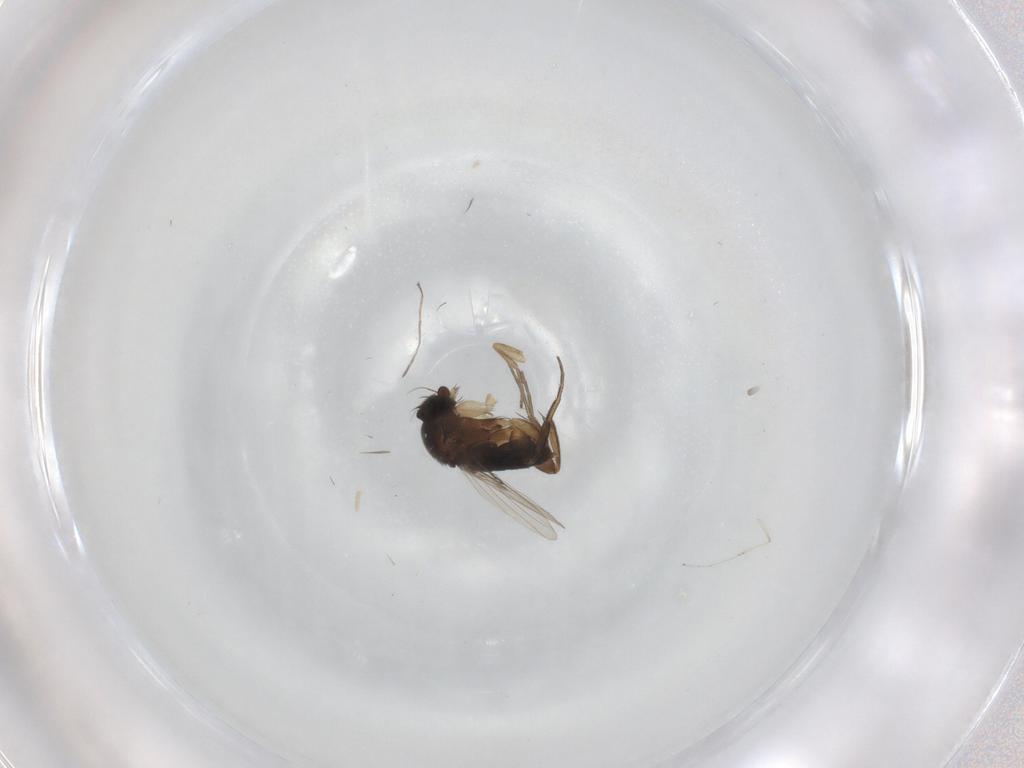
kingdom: Animalia
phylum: Arthropoda
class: Insecta
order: Diptera
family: Phoridae
